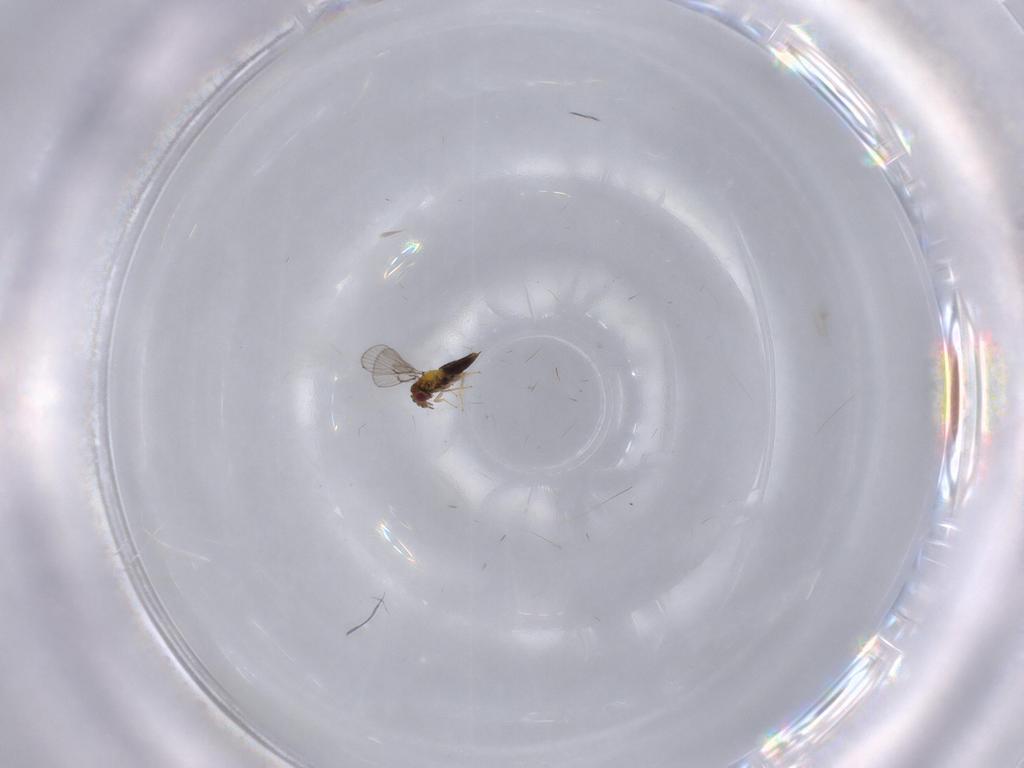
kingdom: Animalia
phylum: Arthropoda
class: Insecta
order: Hymenoptera
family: Trichogrammatidae
